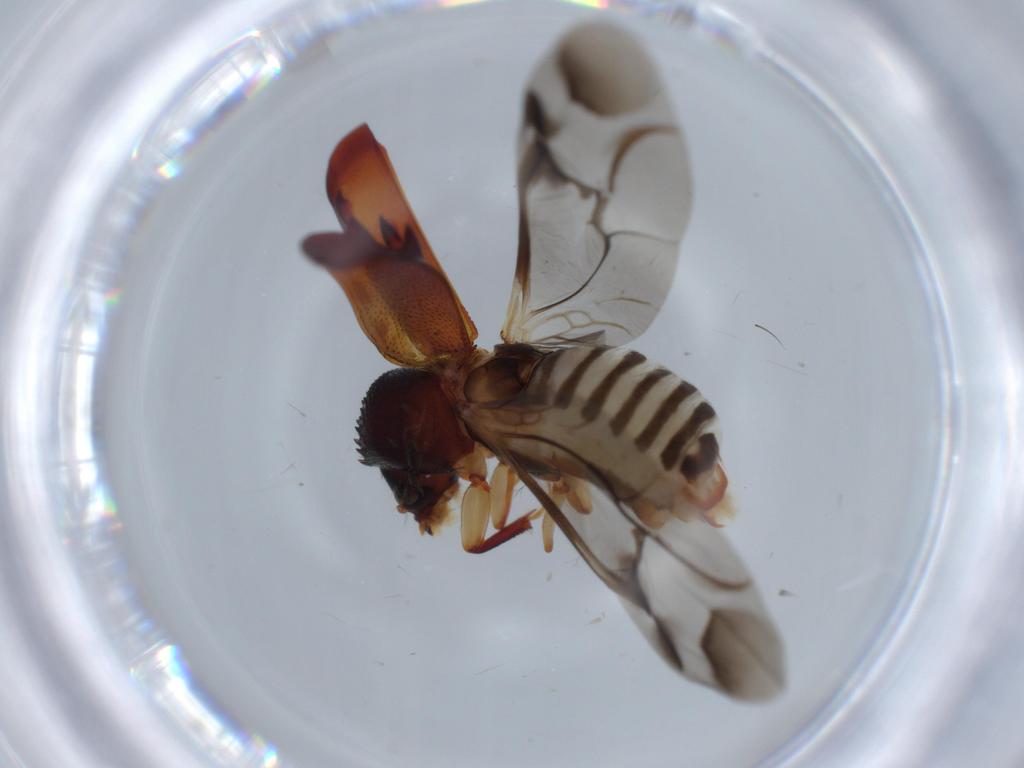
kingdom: Animalia
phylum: Arthropoda
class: Insecta
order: Coleoptera
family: Bostrichidae
